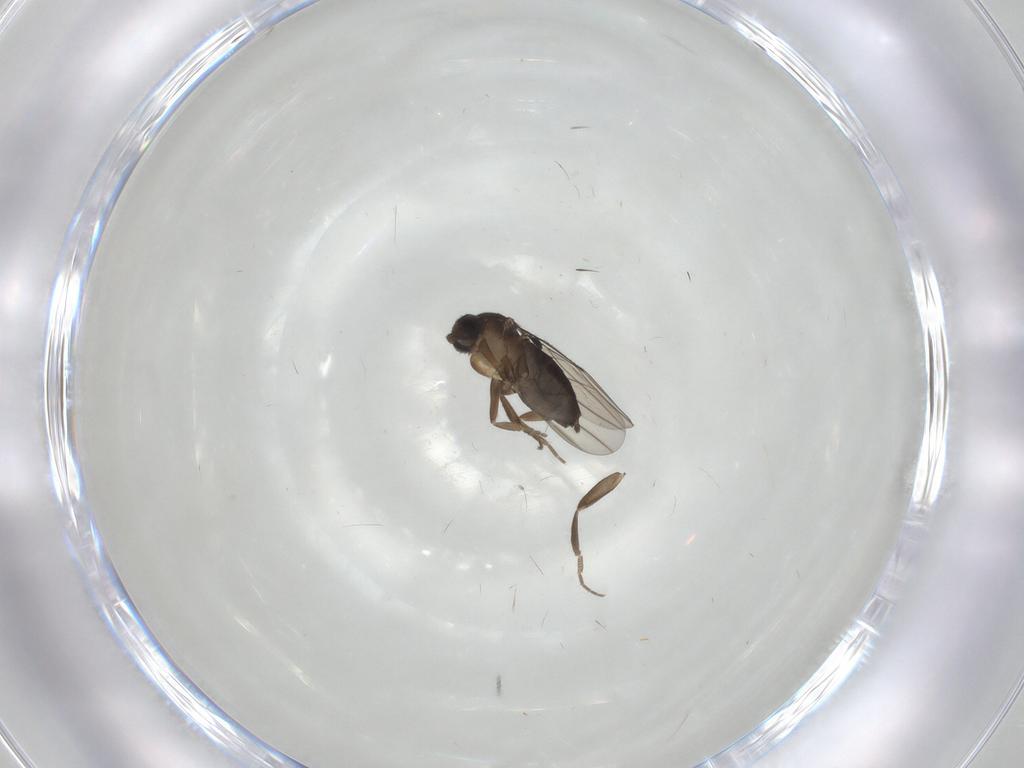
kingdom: Animalia
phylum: Arthropoda
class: Insecta
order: Diptera
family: Phoridae
